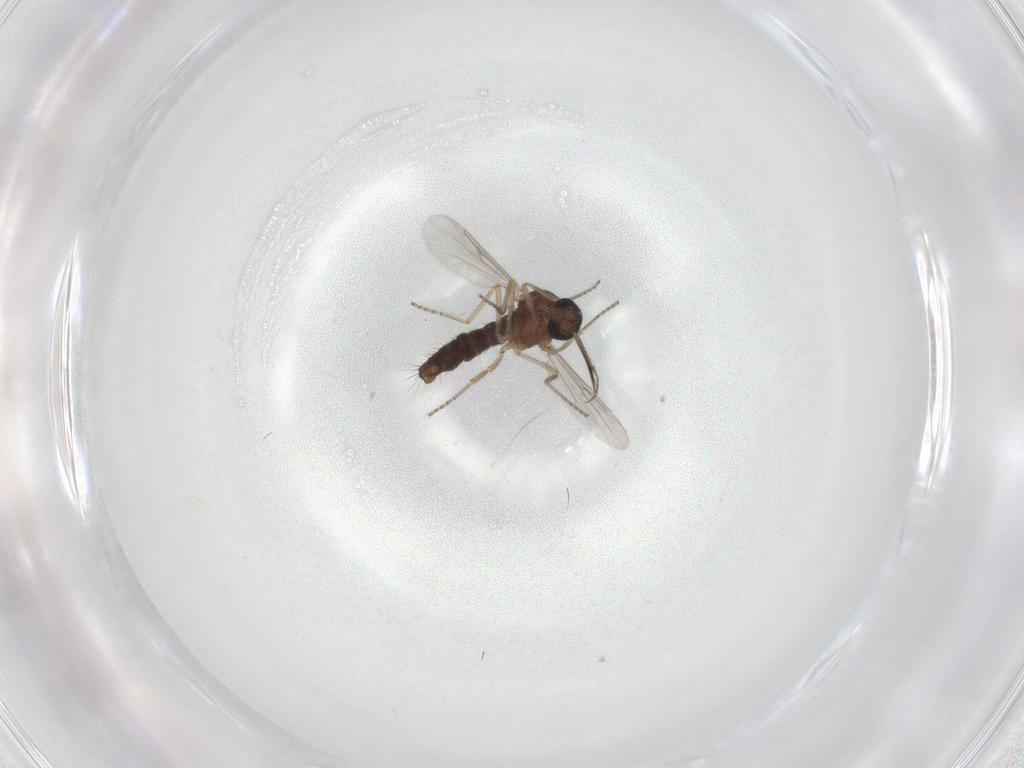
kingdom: Animalia
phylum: Arthropoda
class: Insecta
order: Diptera
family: Ceratopogonidae
